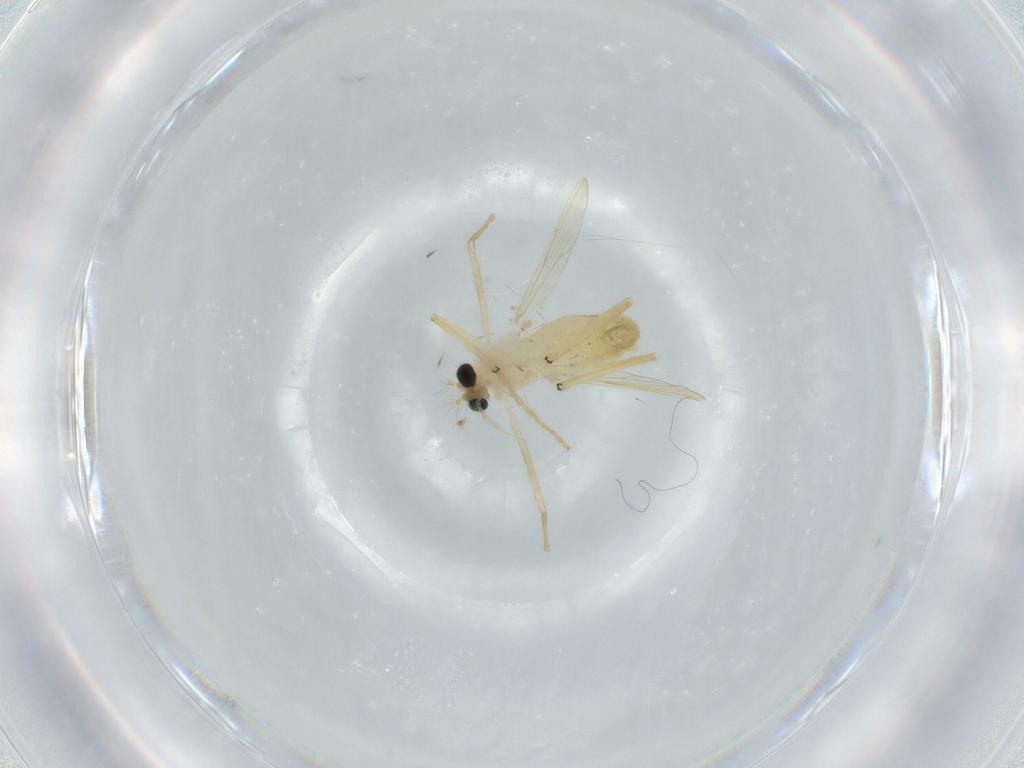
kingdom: Animalia
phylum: Arthropoda
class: Insecta
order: Diptera
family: Chironomidae
